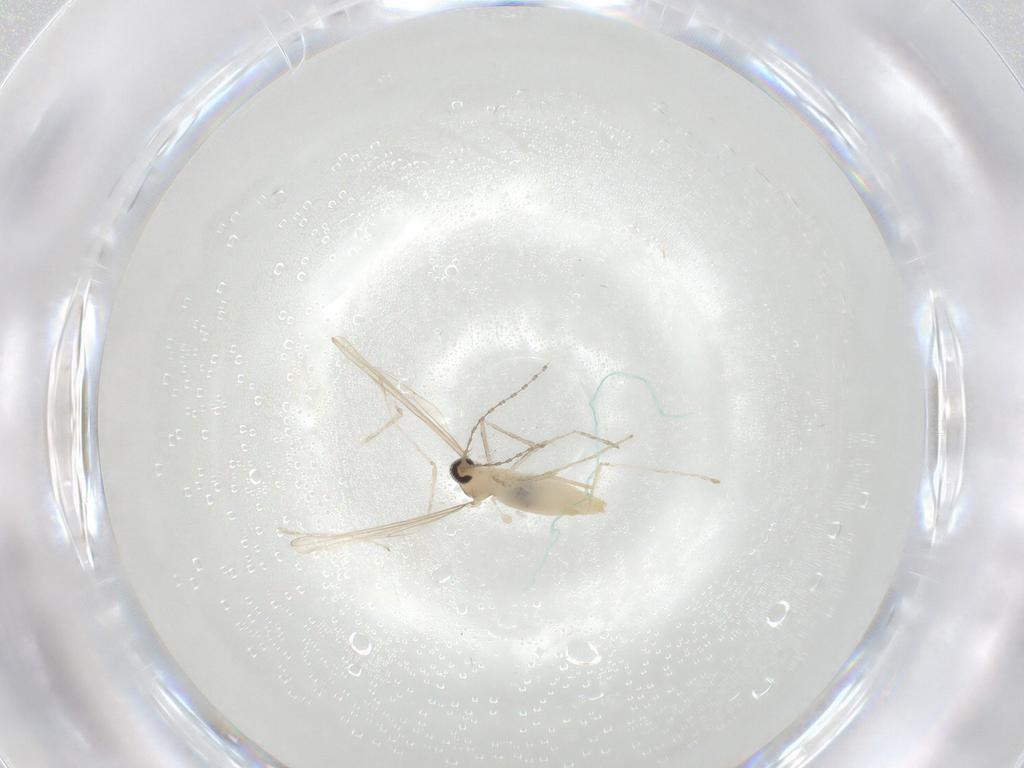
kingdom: Animalia
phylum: Arthropoda
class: Insecta
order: Diptera
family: Cecidomyiidae
